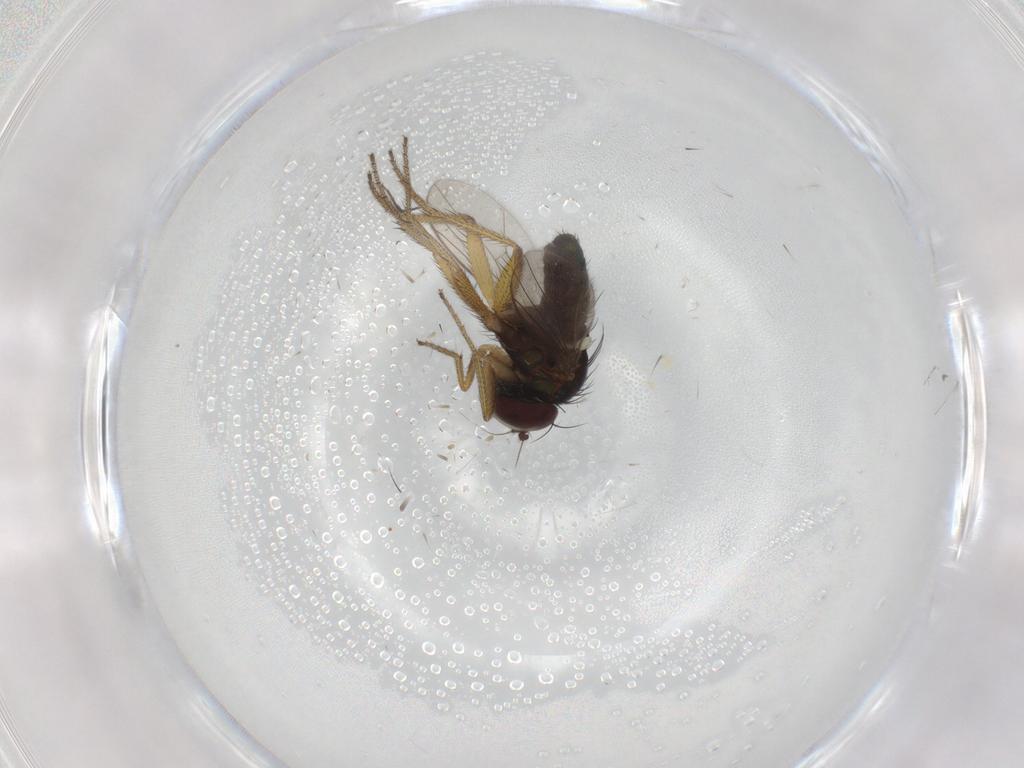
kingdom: Animalia
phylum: Arthropoda
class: Insecta
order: Diptera
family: Chironomidae
